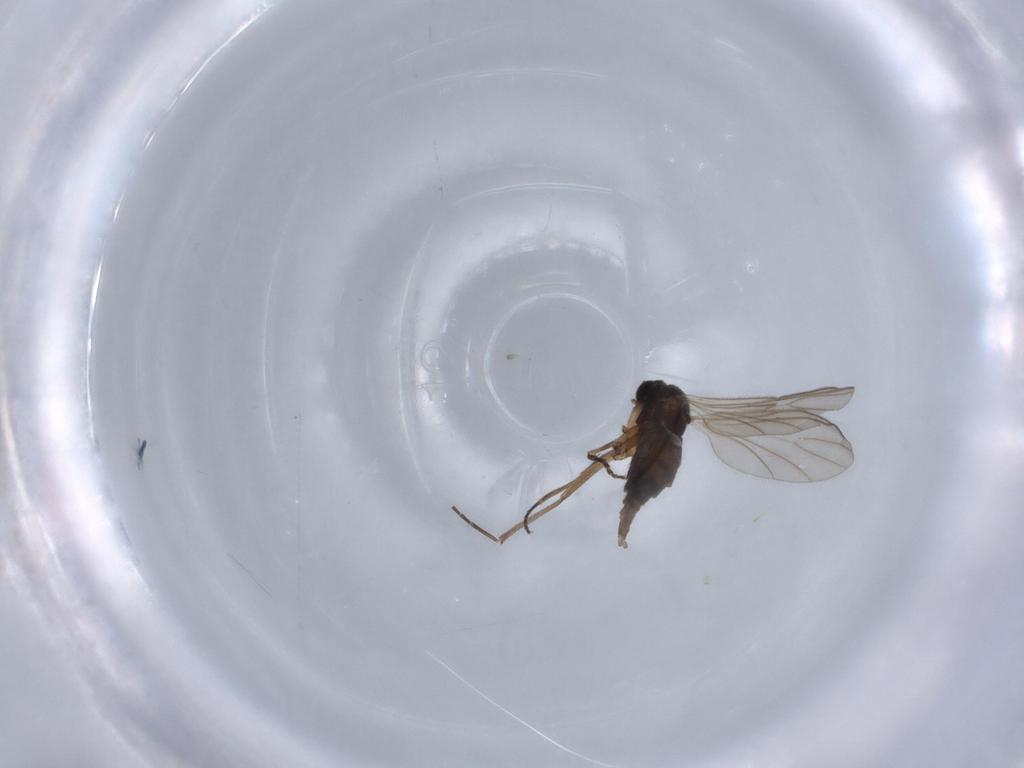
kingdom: Animalia
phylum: Arthropoda
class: Insecta
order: Diptera
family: Sciaridae
